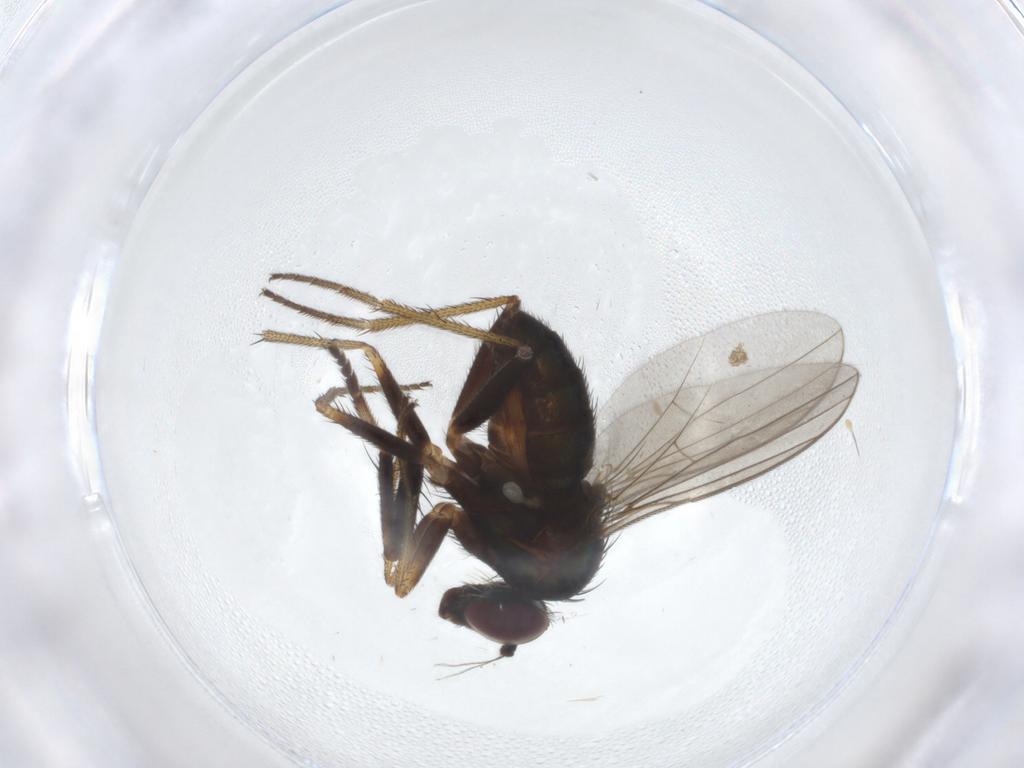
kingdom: Animalia
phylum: Arthropoda
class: Insecta
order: Diptera
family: Dolichopodidae
